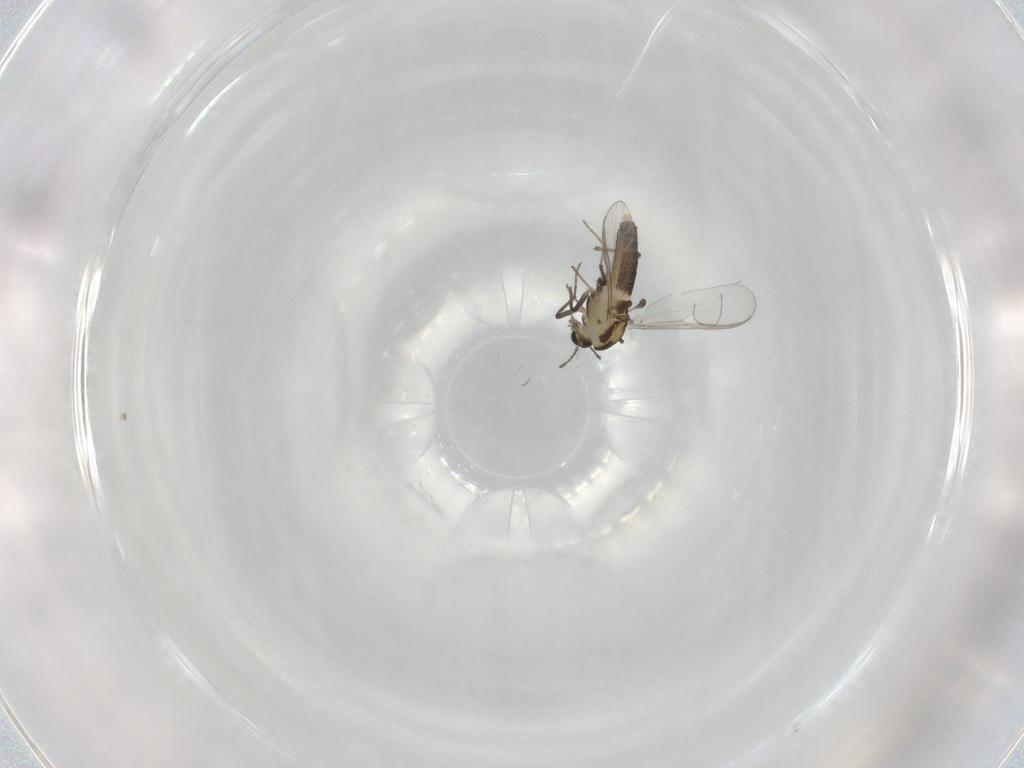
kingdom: Animalia
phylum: Arthropoda
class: Insecta
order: Diptera
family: Chironomidae
